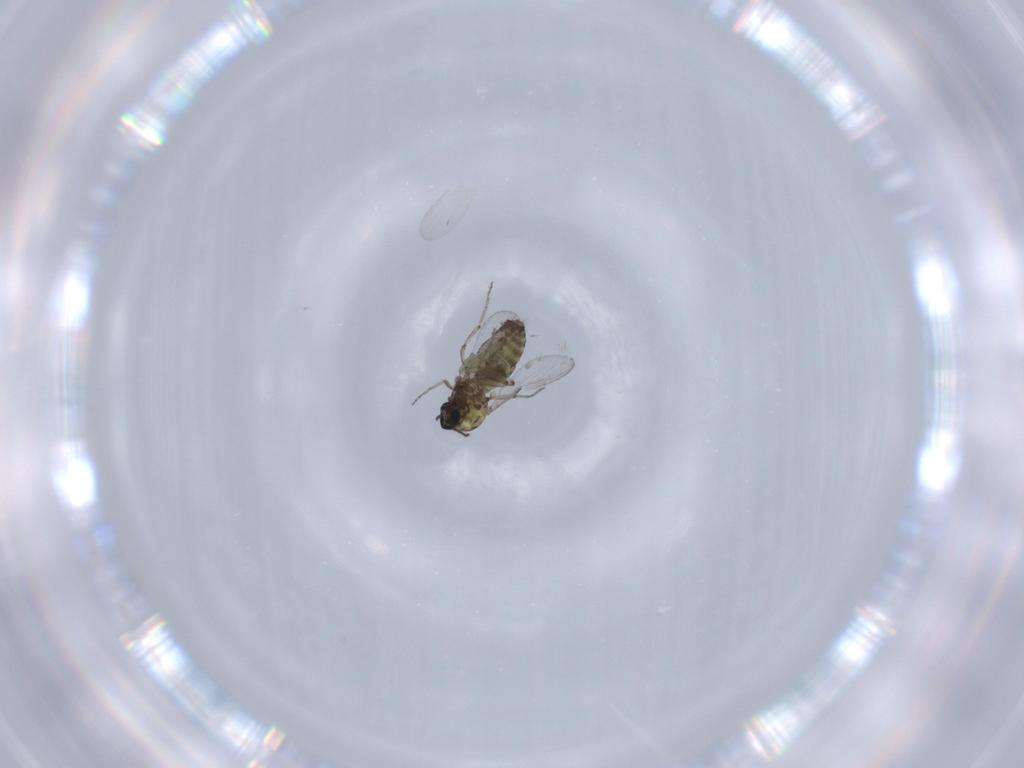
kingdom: Animalia
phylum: Arthropoda
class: Insecta
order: Diptera
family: Ceratopogonidae
